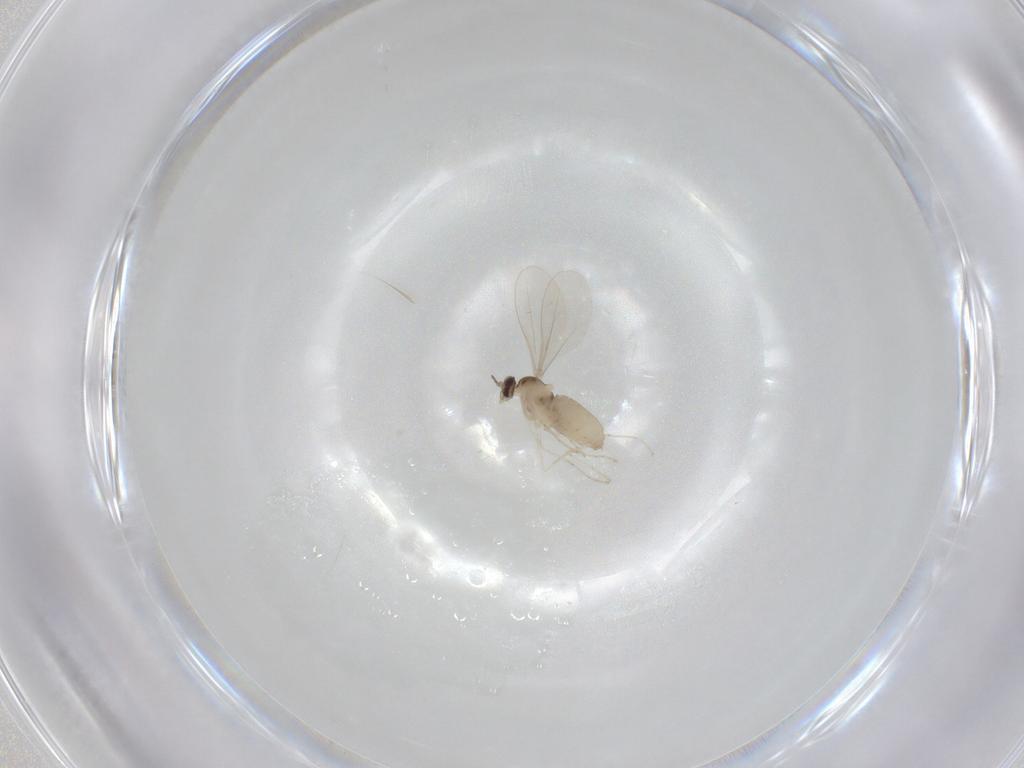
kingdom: Animalia
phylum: Arthropoda
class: Insecta
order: Diptera
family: Cecidomyiidae
